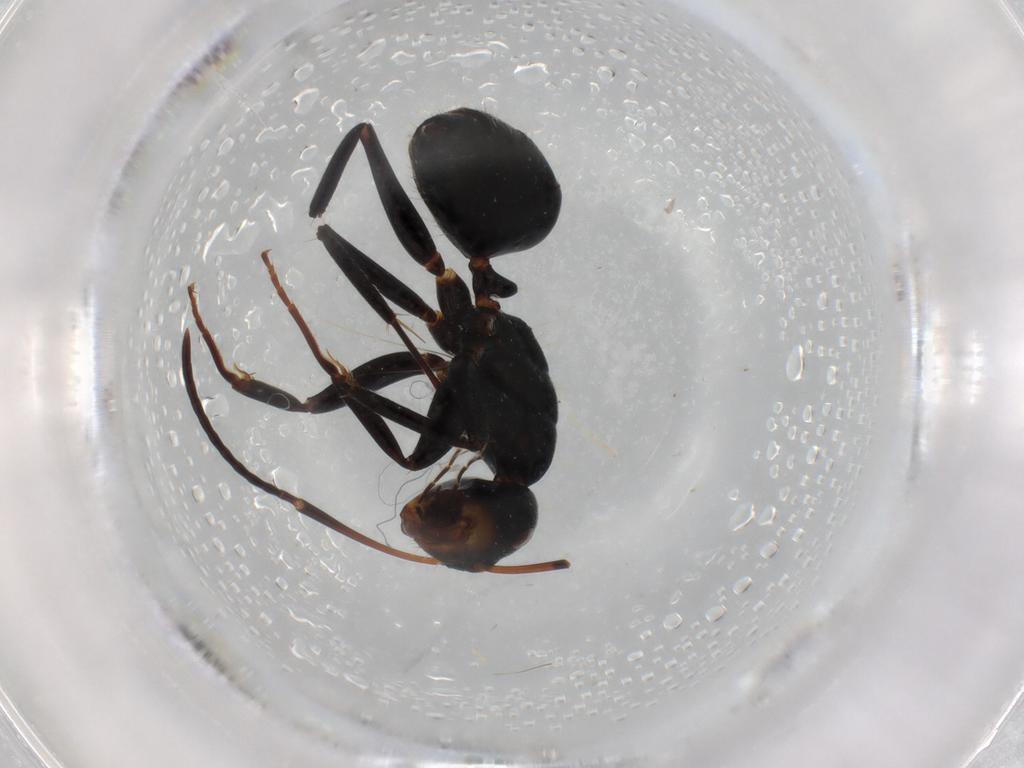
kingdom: Animalia
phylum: Arthropoda
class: Insecta
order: Hymenoptera
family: Formicidae
